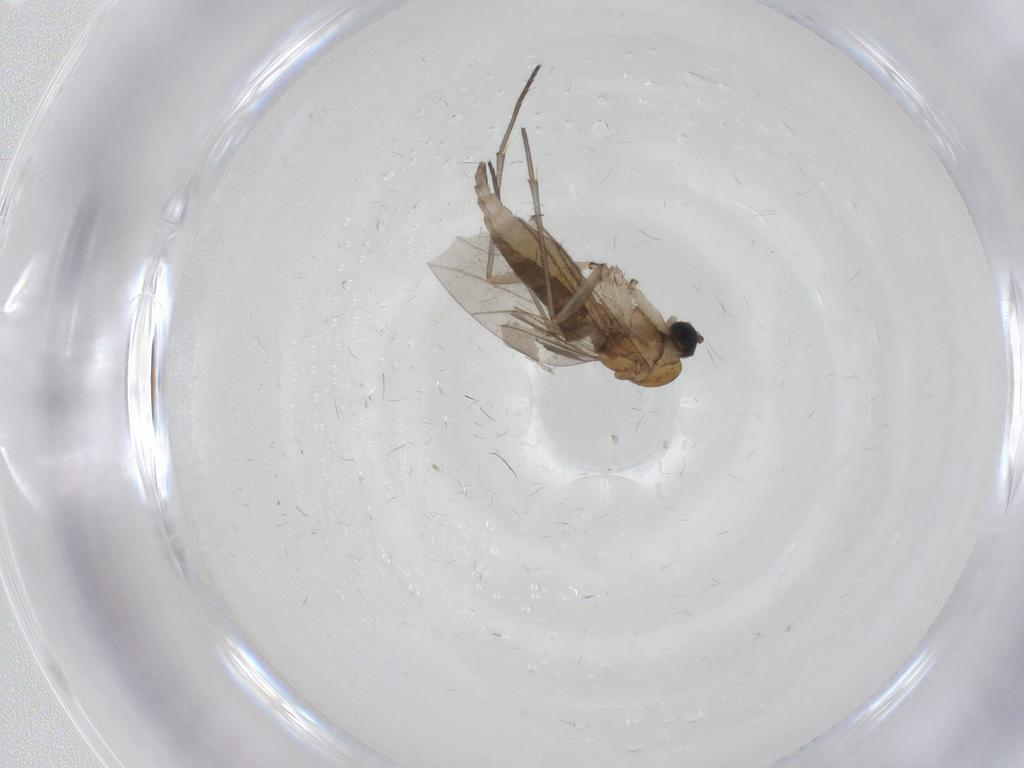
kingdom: Animalia
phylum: Arthropoda
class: Insecta
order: Diptera
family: Sciaridae
